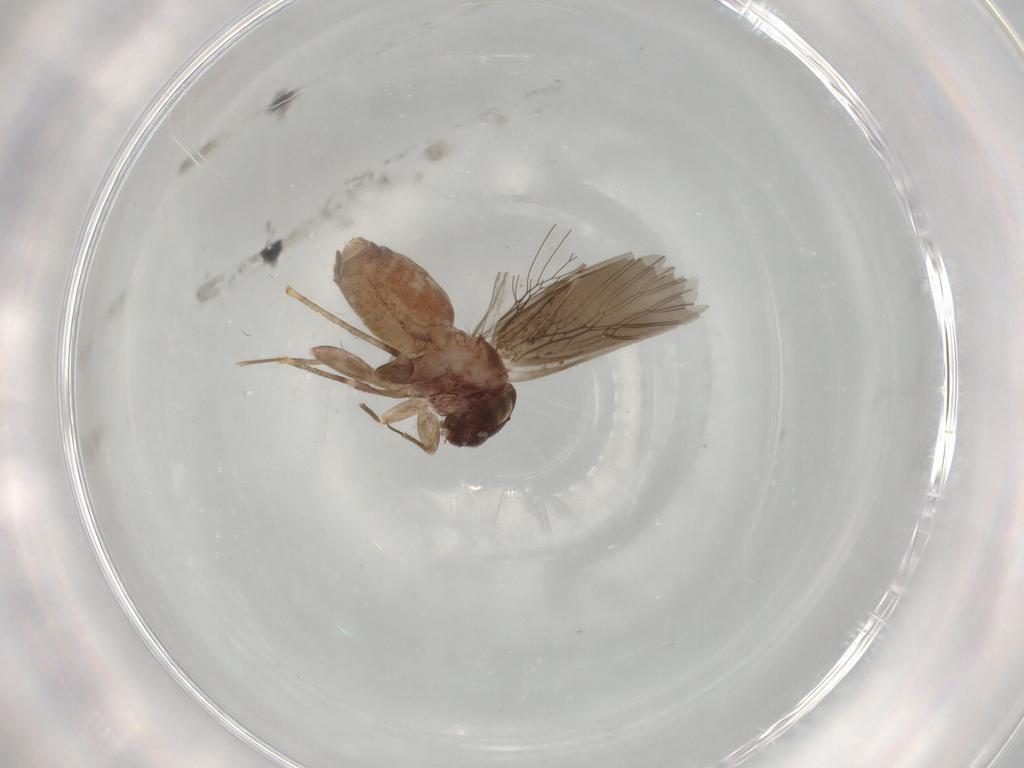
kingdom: Animalia
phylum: Arthropoda
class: Insecta
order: Psocodea
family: Lepidopsocidae
